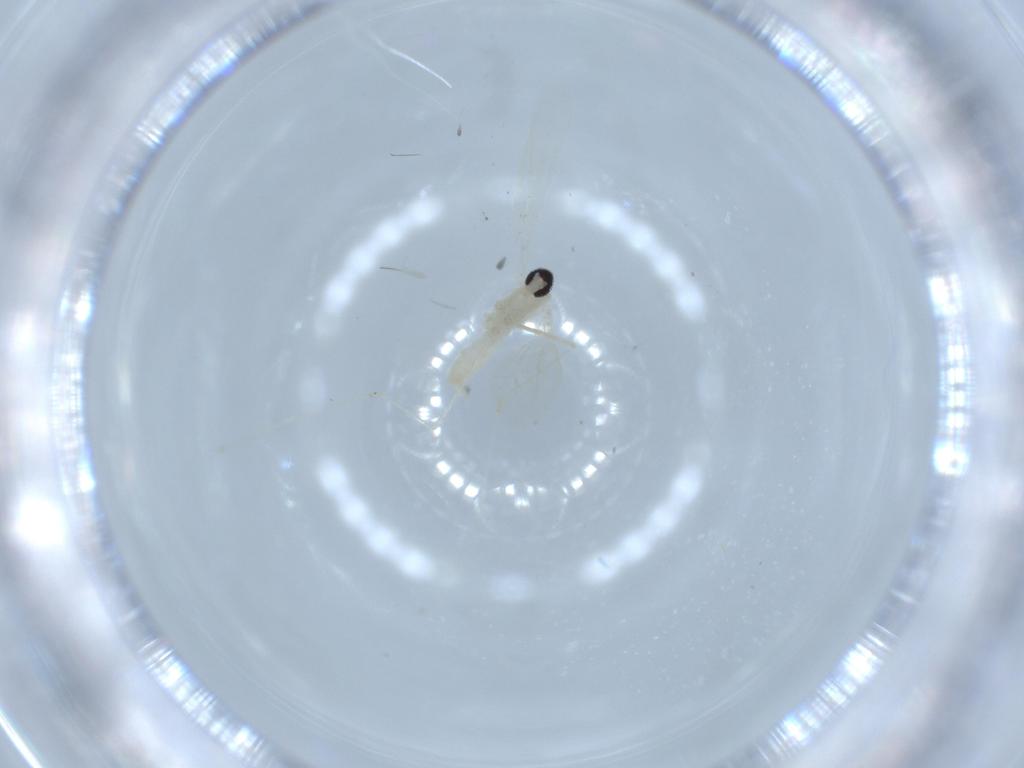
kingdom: Animalia
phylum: Arthropoda
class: Insecta
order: Diptera
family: Cecidomyiidae
